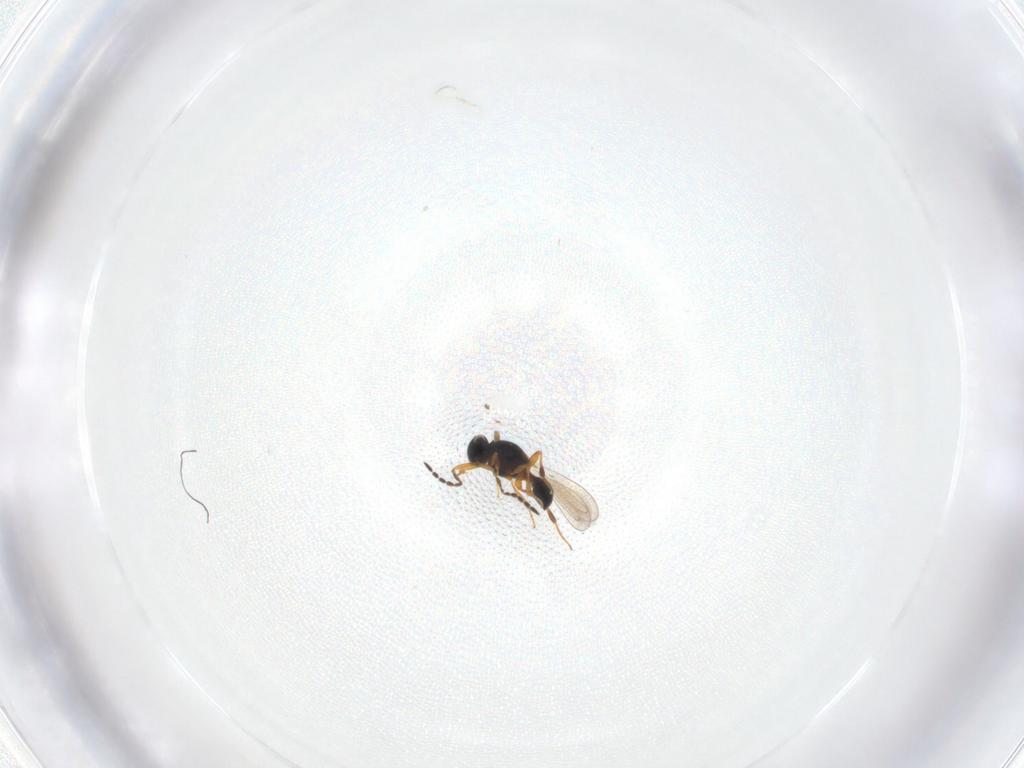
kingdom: Animalia
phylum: Arthropoda
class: Insecta
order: Hymenoptera
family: Platygastridae
